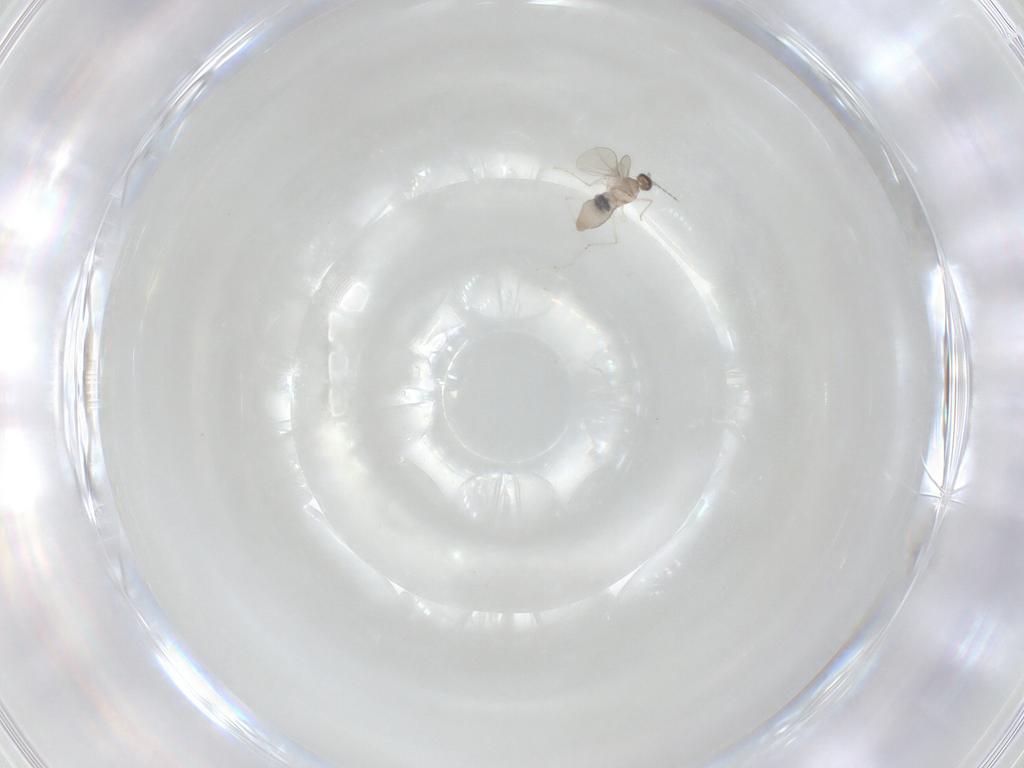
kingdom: Animalia
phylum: Arthropoda
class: Insecta
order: Diptera
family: Cecidomyiidae
